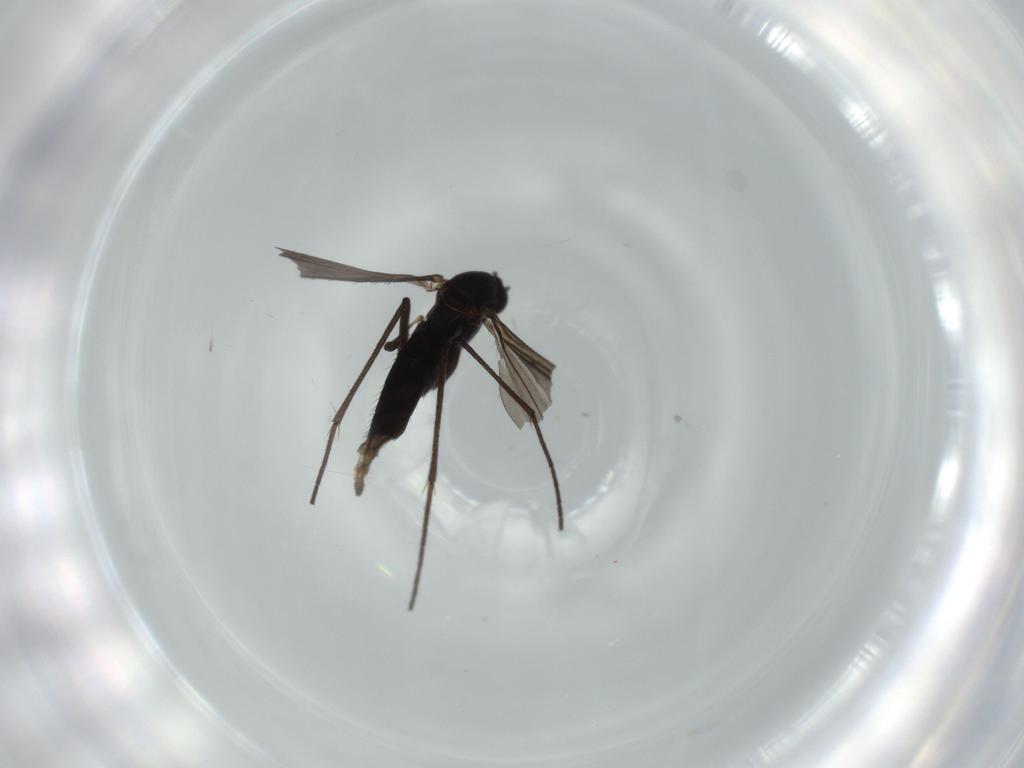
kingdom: Animalia
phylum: Arthropoda
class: Insecta
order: Diptera
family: Sciaridae
